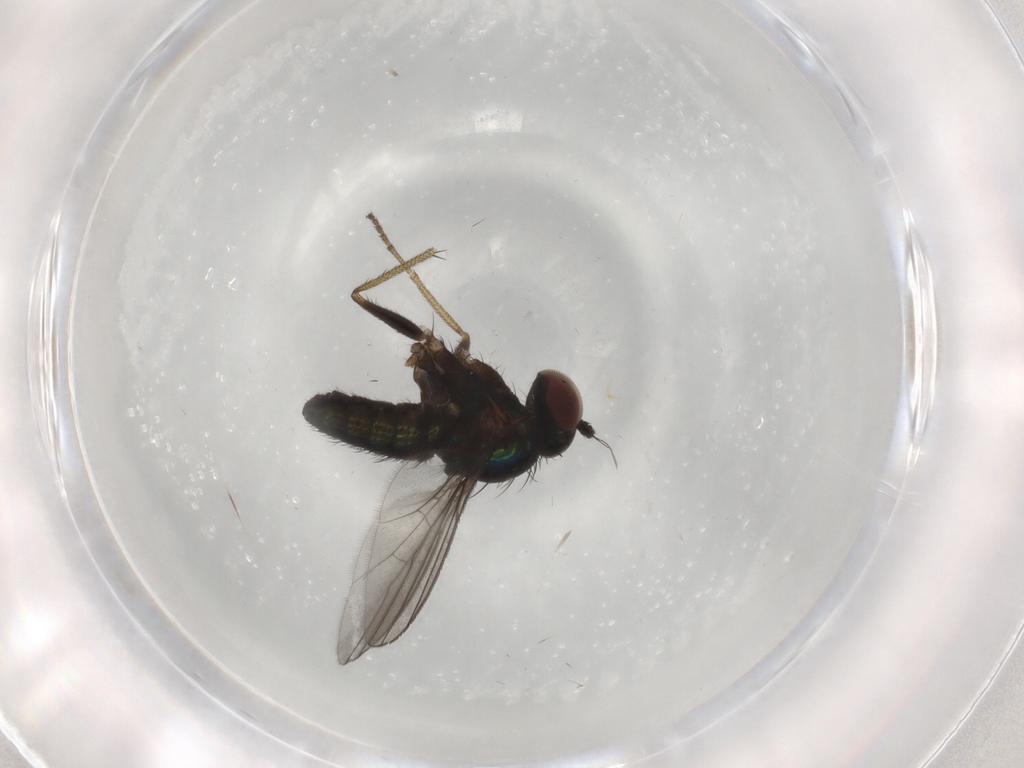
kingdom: Animalia
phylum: Arthropoda
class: Insecta
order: Diptera
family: Dolichopodidae
